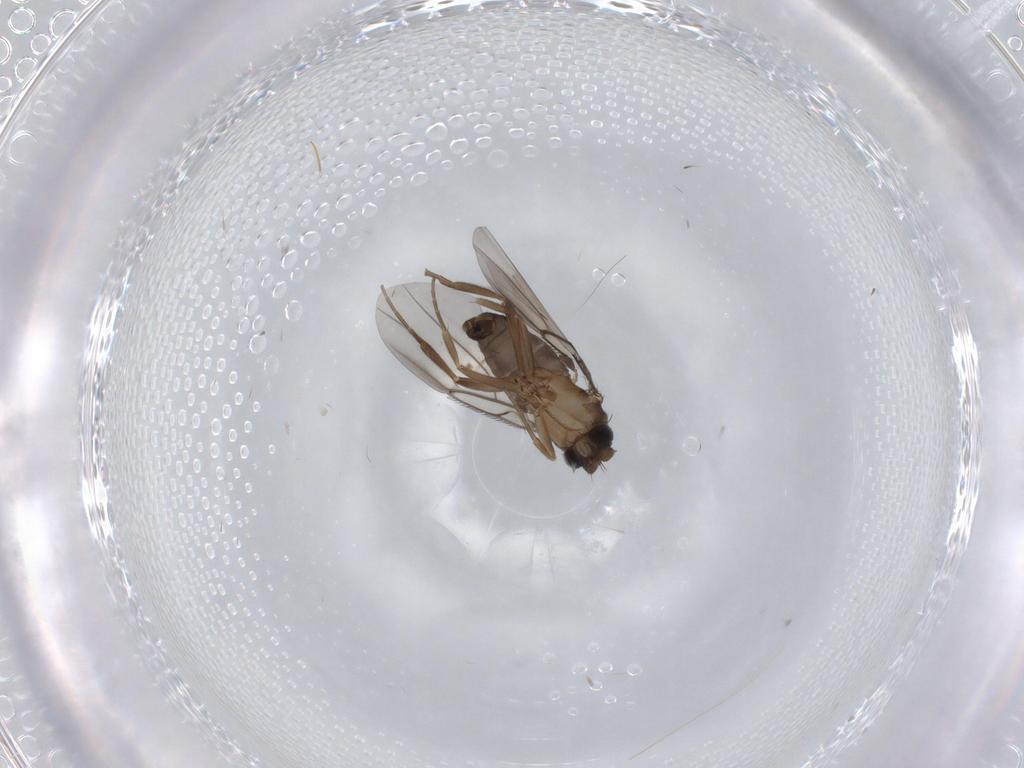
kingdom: Animalia
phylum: Arthropoda
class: Insecta
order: Diptera
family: Phoridae
